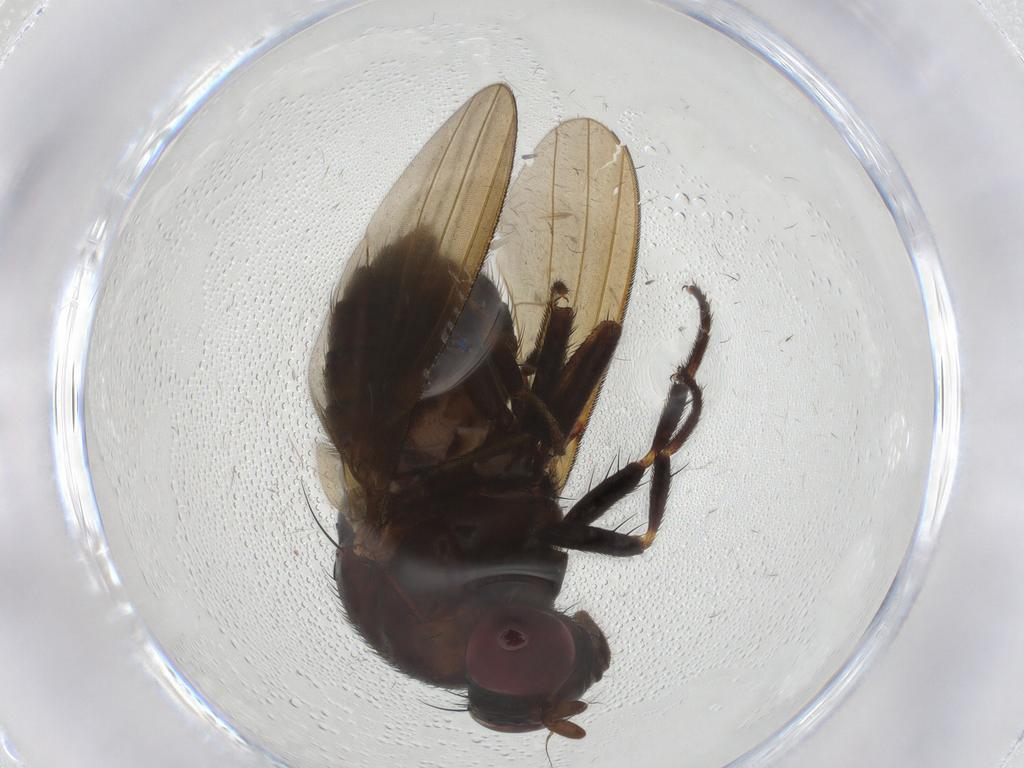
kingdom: Animalia
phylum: Arthropoda
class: Insecta
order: Diptera
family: Lauxaniidae
